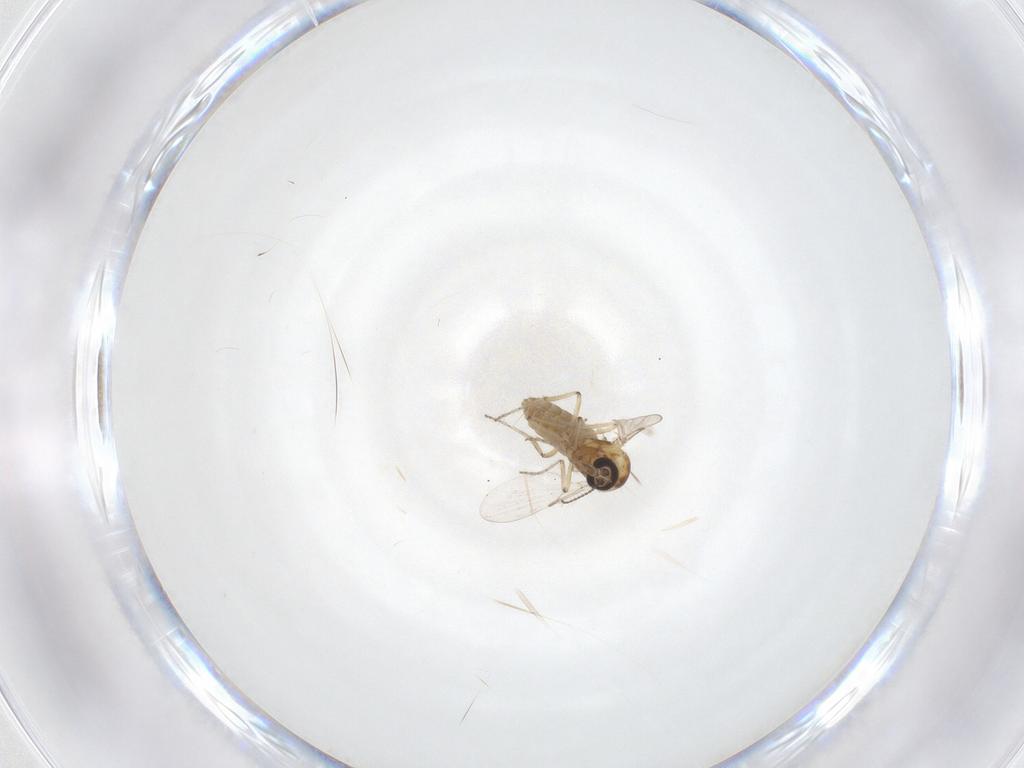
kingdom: Animalia
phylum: Arthropoda
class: Insecta
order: Diptera
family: Ceratopogonidae
